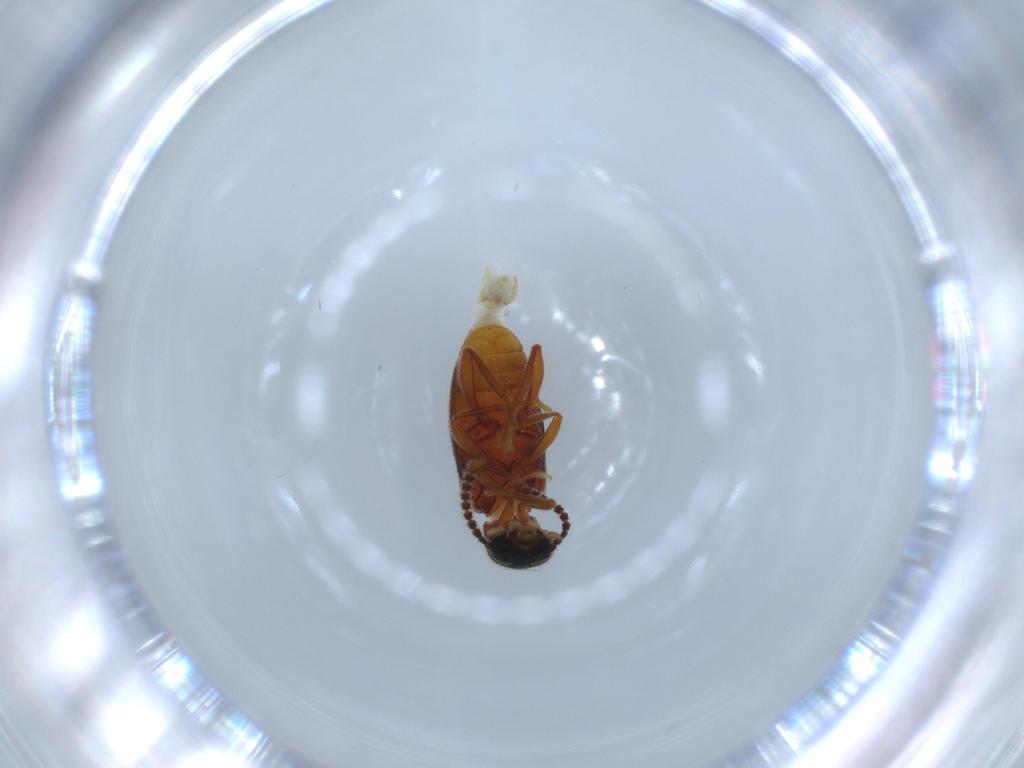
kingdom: Animalia
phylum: Arthropoda
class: Insecta
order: Coleoptera
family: Aderidae
